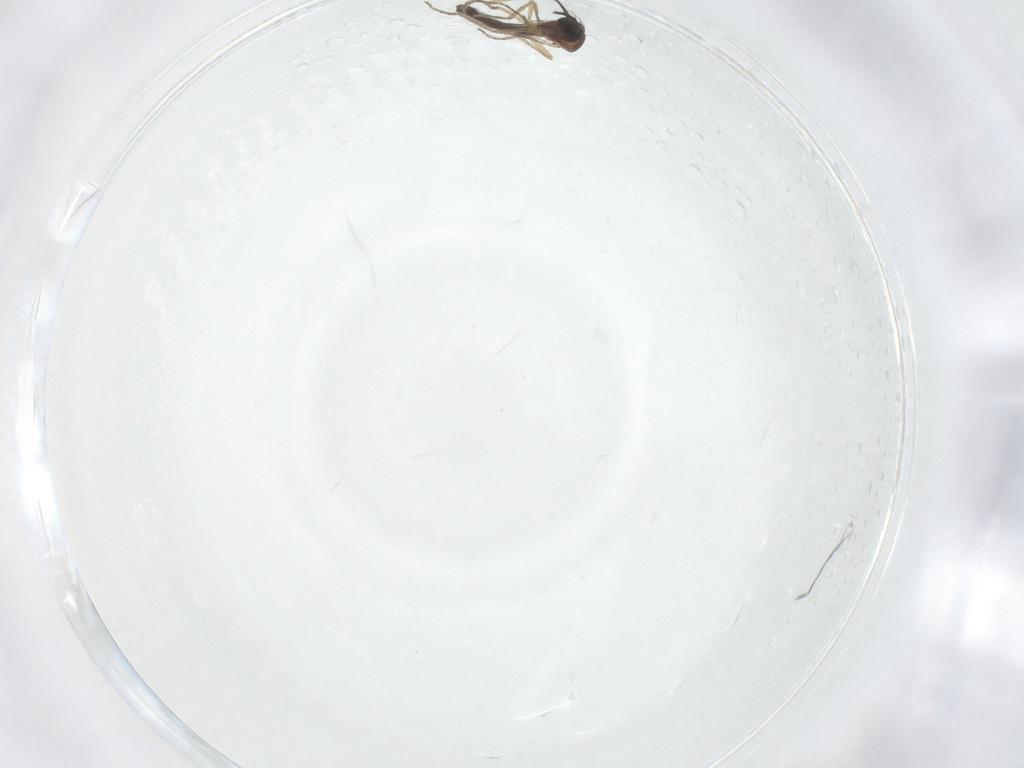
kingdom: Animalia
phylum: Arthropoda
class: Insecta
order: Diptera
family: Ceratopogonidae
